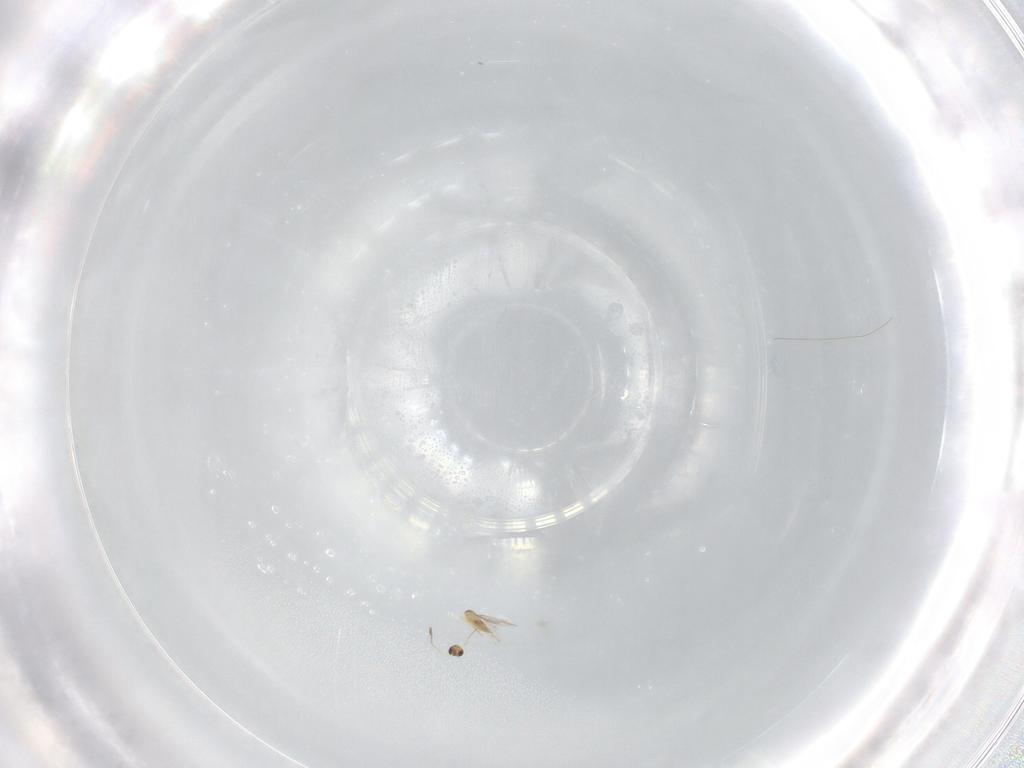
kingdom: Animalia
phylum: Arthropoda
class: Insecta
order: Hymenoptera
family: Mymaridae
